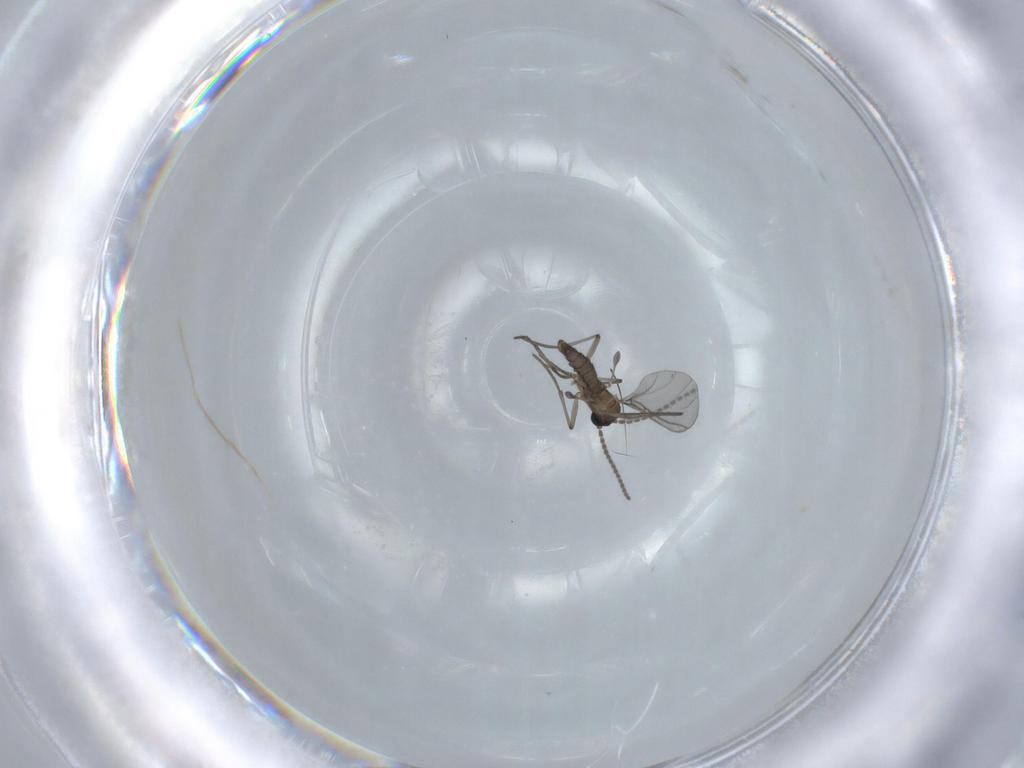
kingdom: Animalia
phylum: Arthropoda
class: Insecta
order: Diptera
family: Sciaridae
